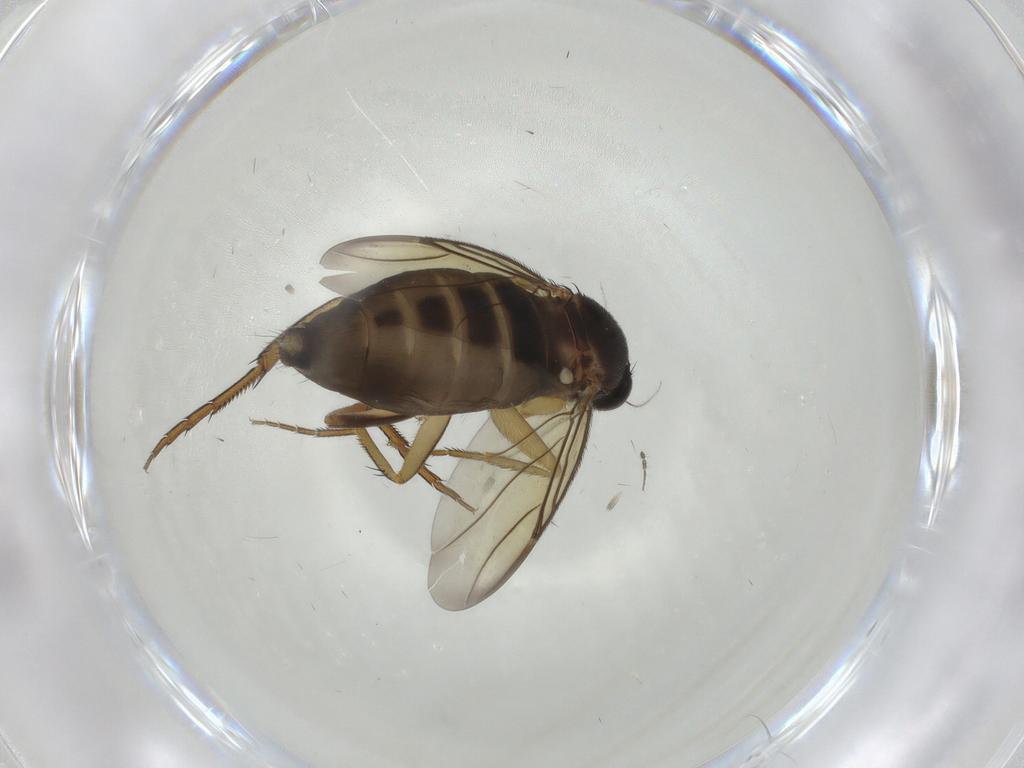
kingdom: Animalia
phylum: Arthropoda
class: Insecta
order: Diptera
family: Phoridae
